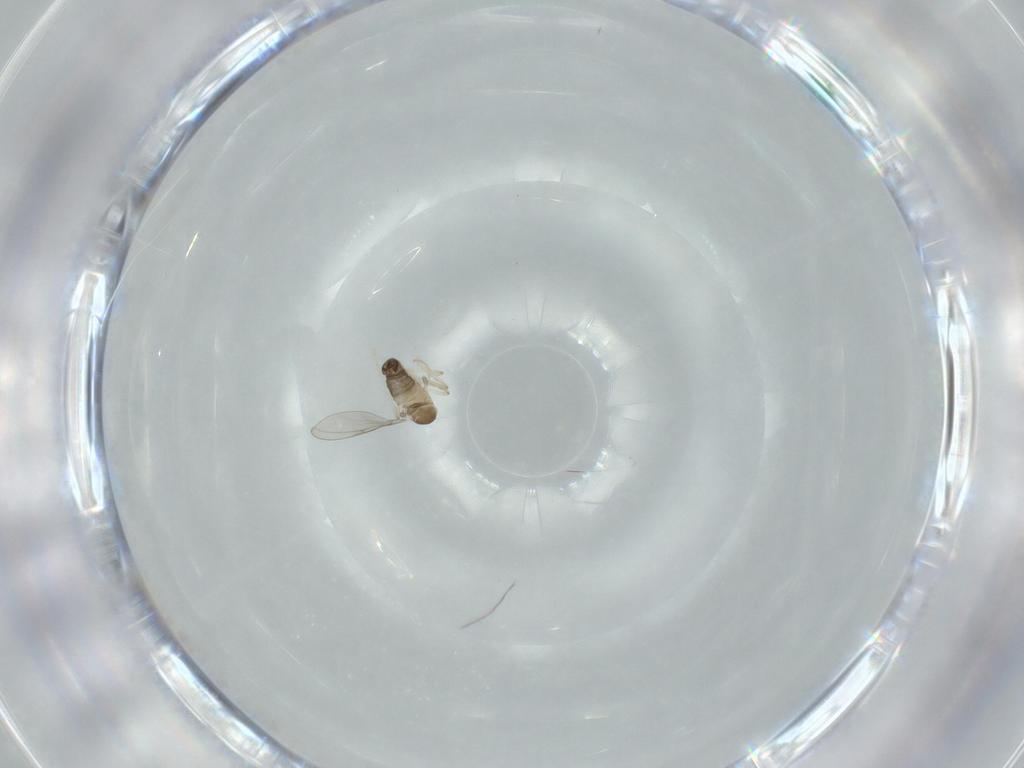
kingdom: Animalia
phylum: Arthropoda
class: Insecta
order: Diptera
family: Cecidomyiidae
